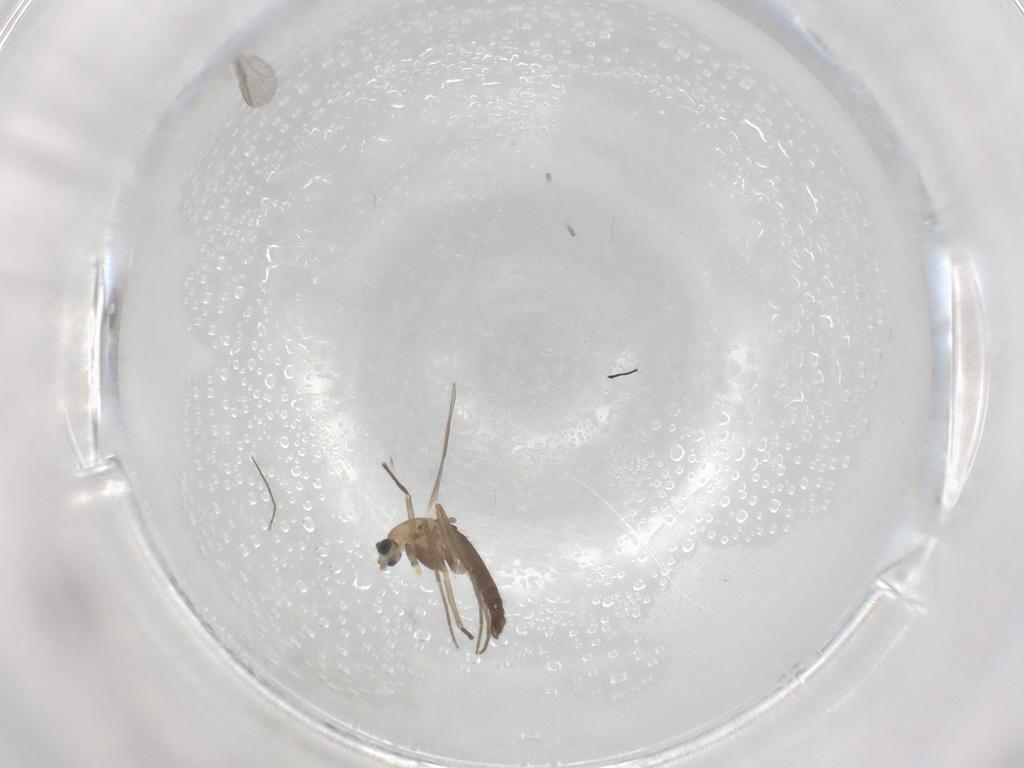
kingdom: Animalia
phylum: Arthropoda
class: Insecta
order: Diptera
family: Chironomidae
